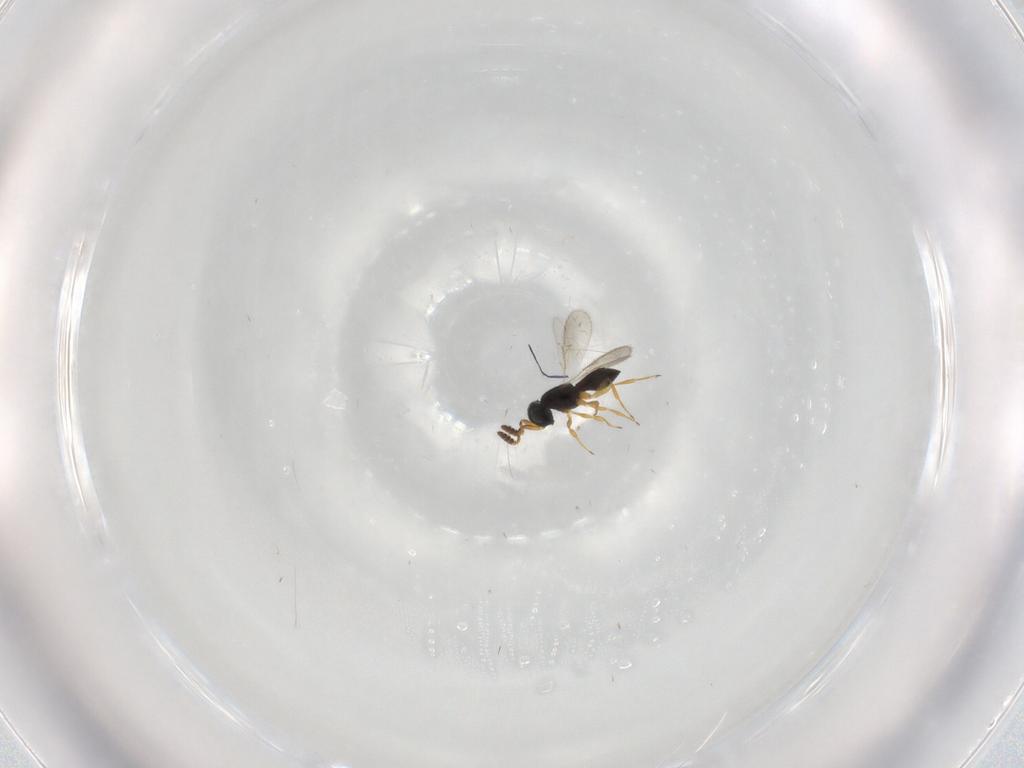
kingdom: Animalia
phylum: Arthropoda
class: Insecta
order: Hymenoptera
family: Scelionidae
